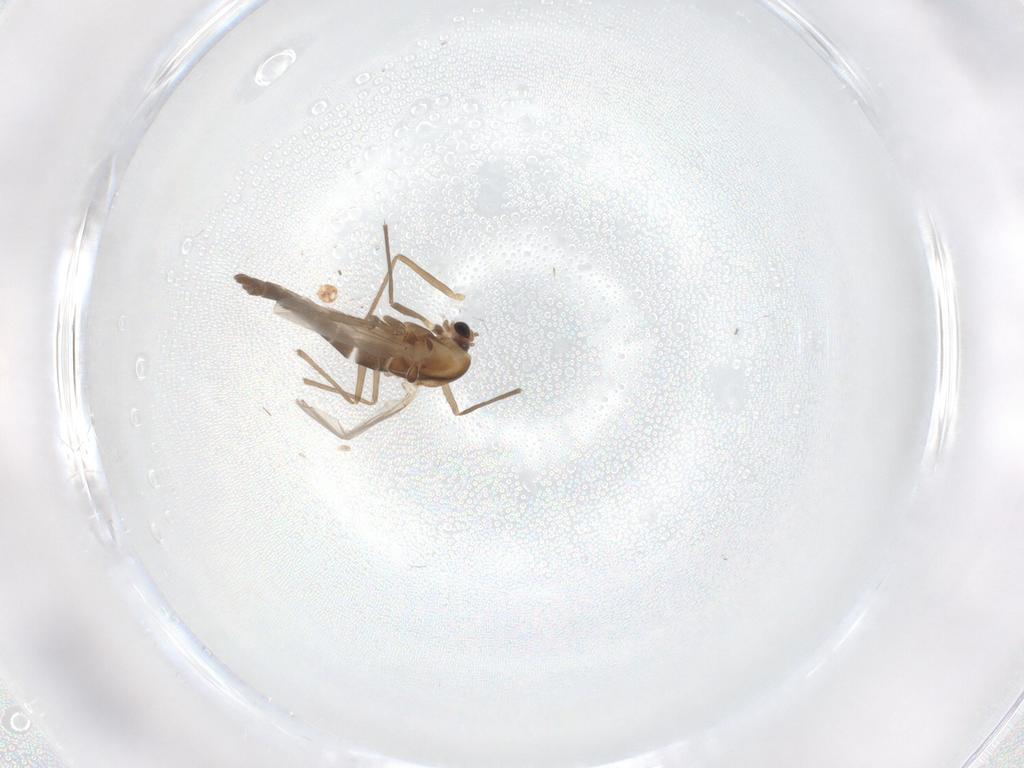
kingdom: Animalia
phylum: Arthropoda
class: Insecta
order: Diptera
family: Chironomidae
